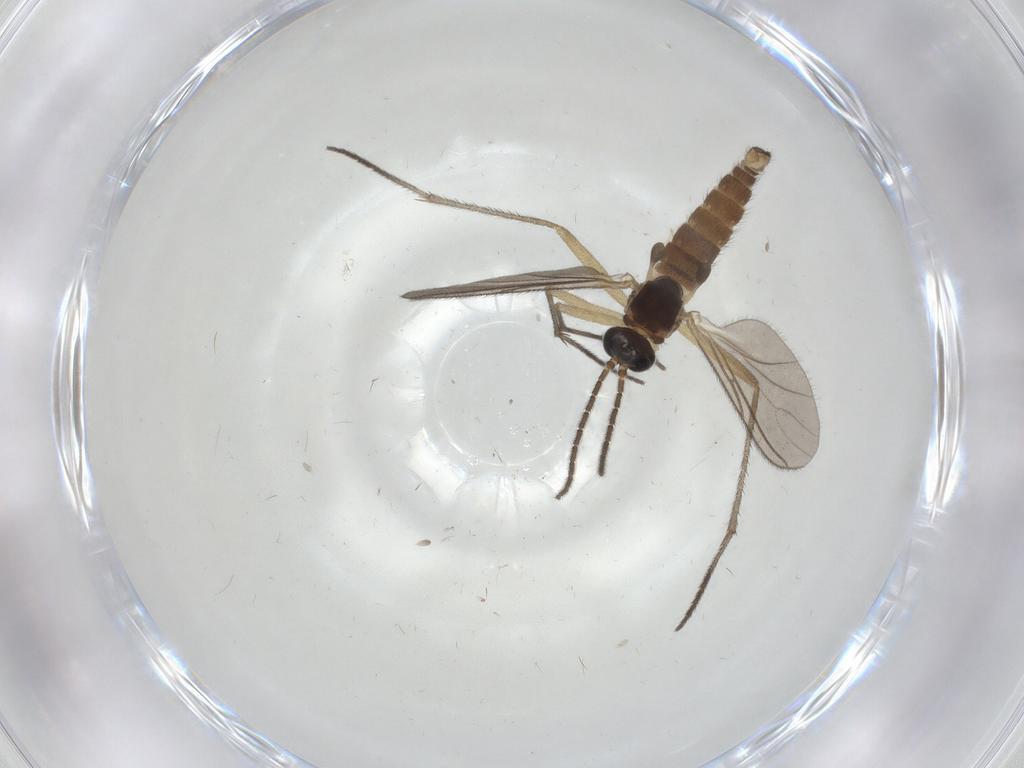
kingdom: Animalia
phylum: Arthropoda
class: Insecta
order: Diptera
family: Sciaridae
